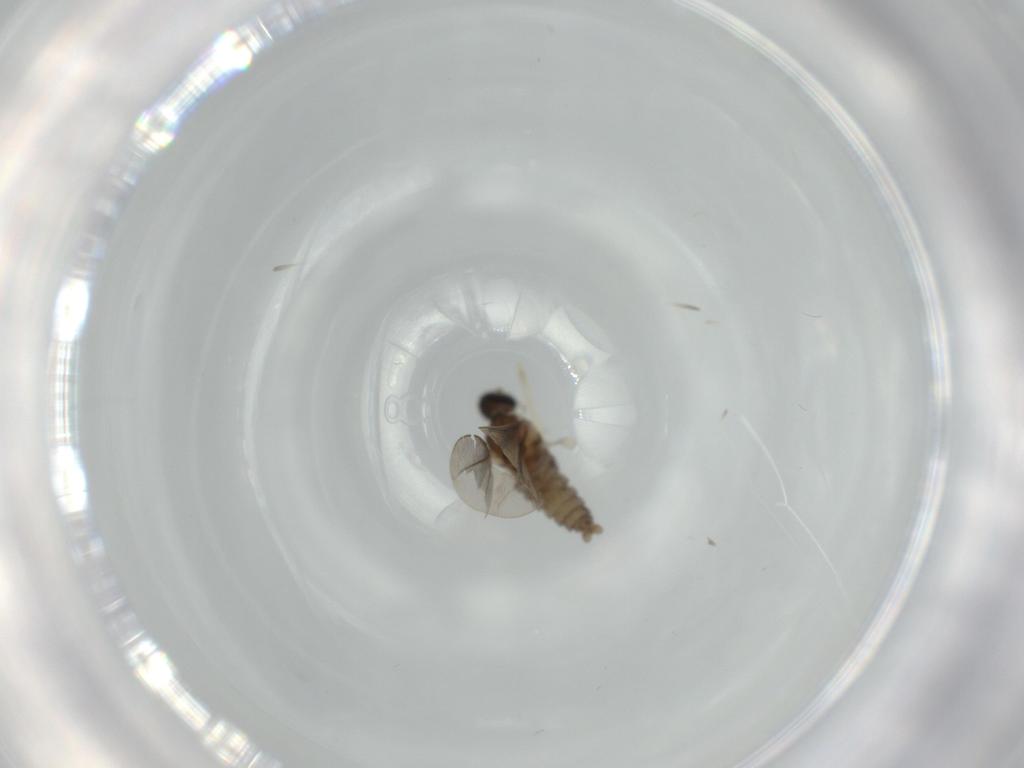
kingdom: Animalia
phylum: Arthropoda
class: Insecta
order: Diptera
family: Cecidomyiidae
